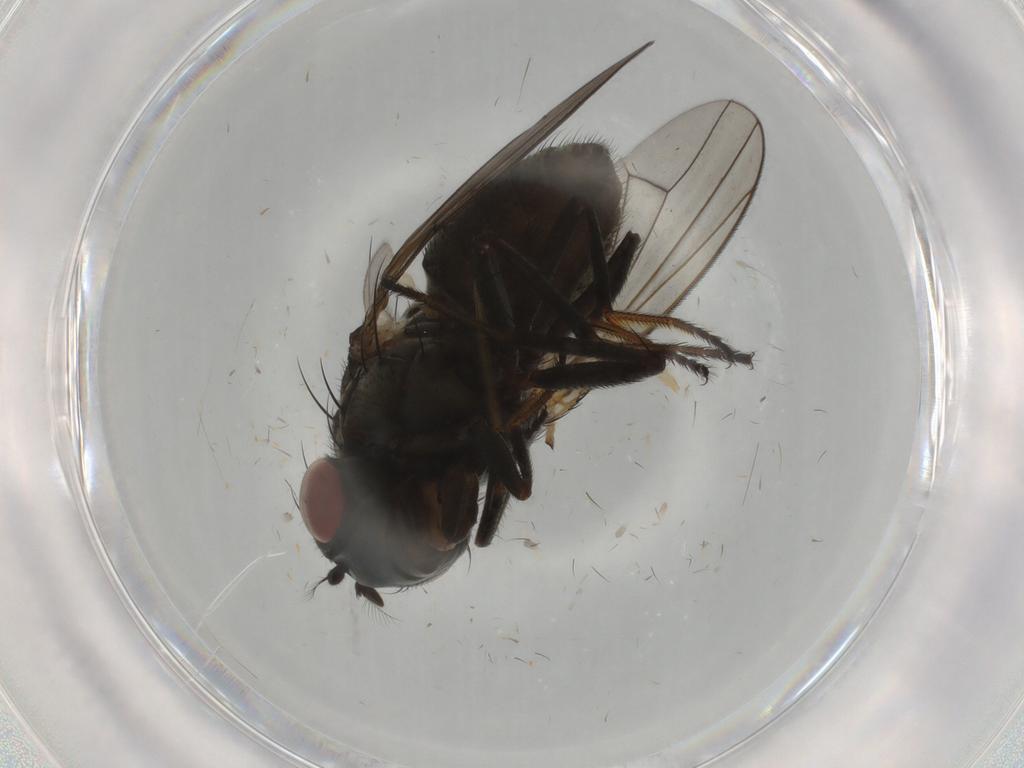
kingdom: Animalia
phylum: Arthropoda
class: Insecta
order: Diptera
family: Ephydridae
